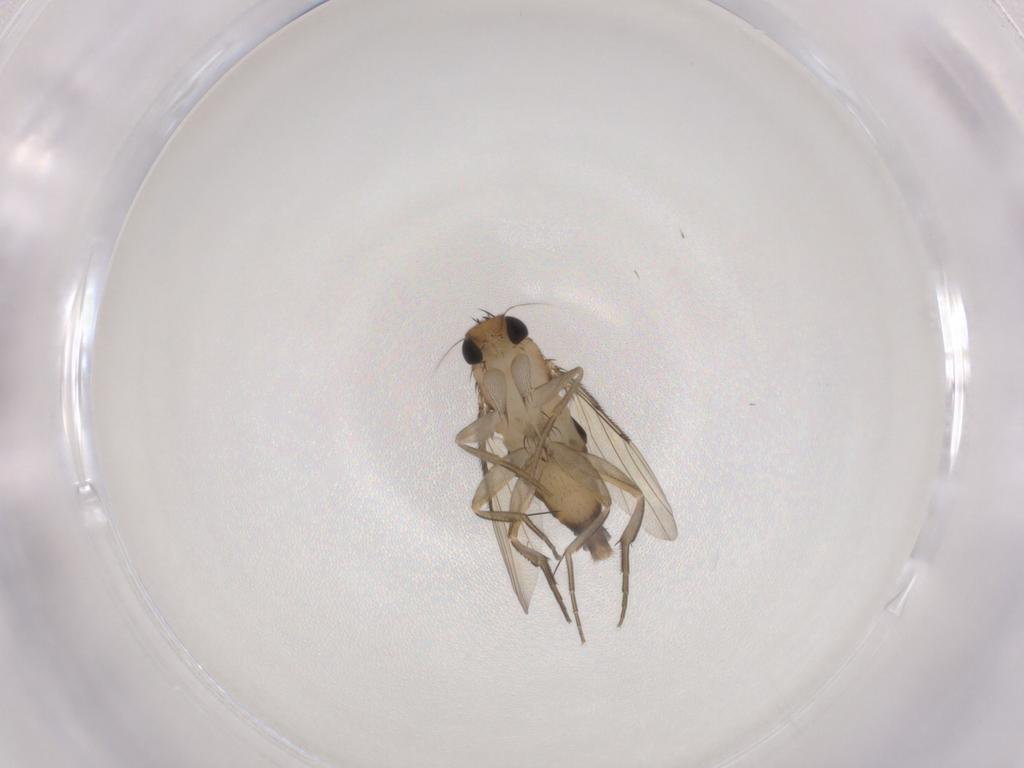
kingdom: Animalia
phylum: Arthropoda
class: Insecta
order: Diptera
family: Phoridae
